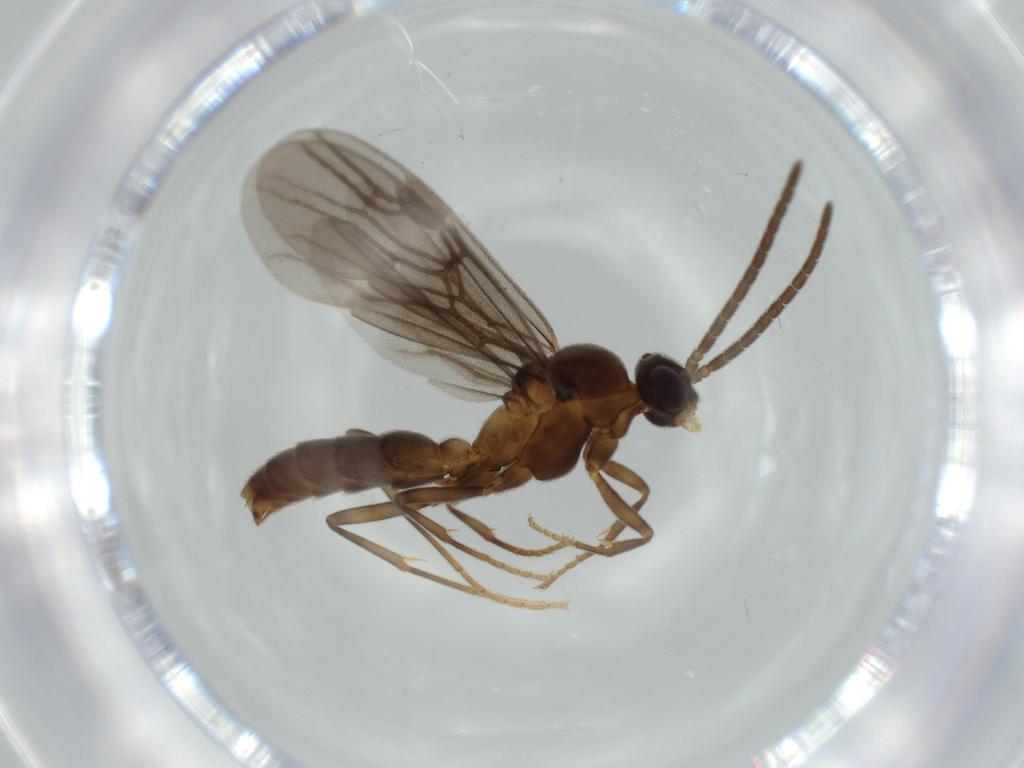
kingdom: Animalia
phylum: Arthropoda
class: Insecta
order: Hymenoptera
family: Formicidae
